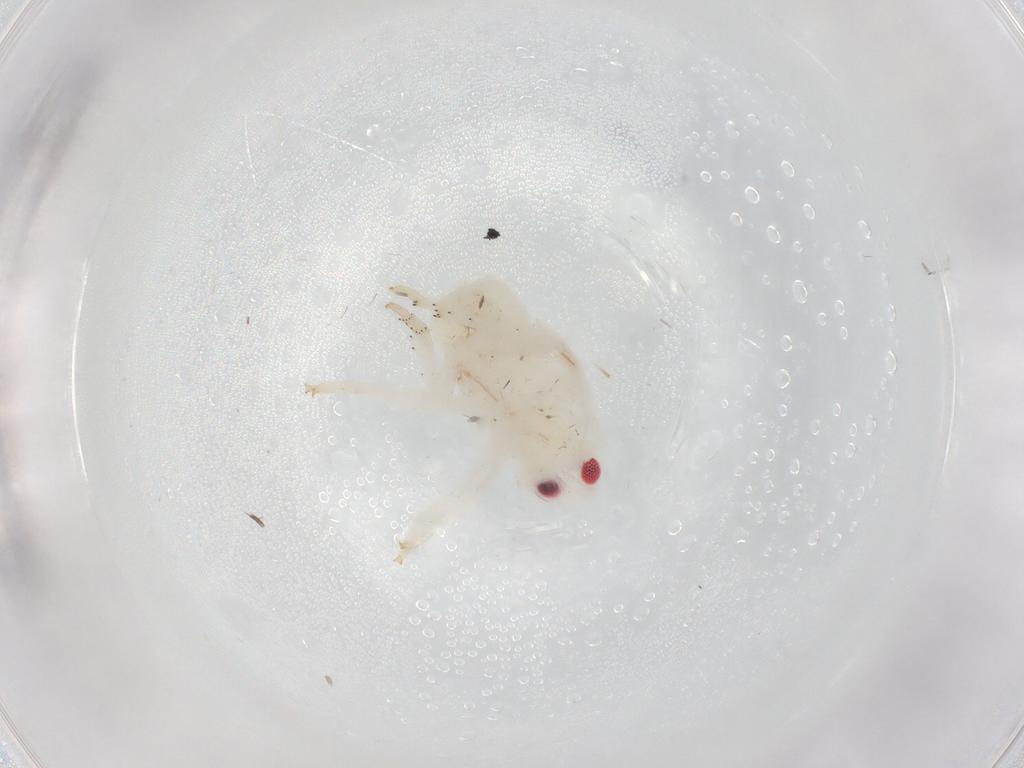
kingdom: Animalia
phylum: Arthropoda
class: Insecta
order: Hemiptera
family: Flatidae
